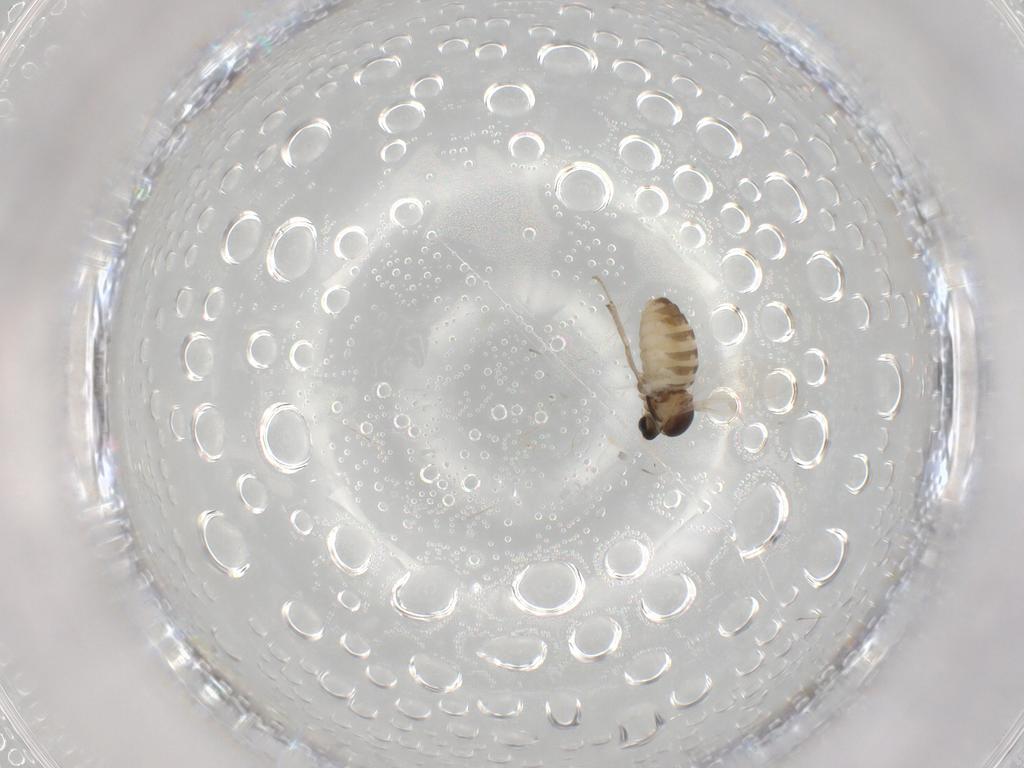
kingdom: Animalia
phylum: Arthropoda
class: Insecta
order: Diptera
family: Cecidomyiidae
